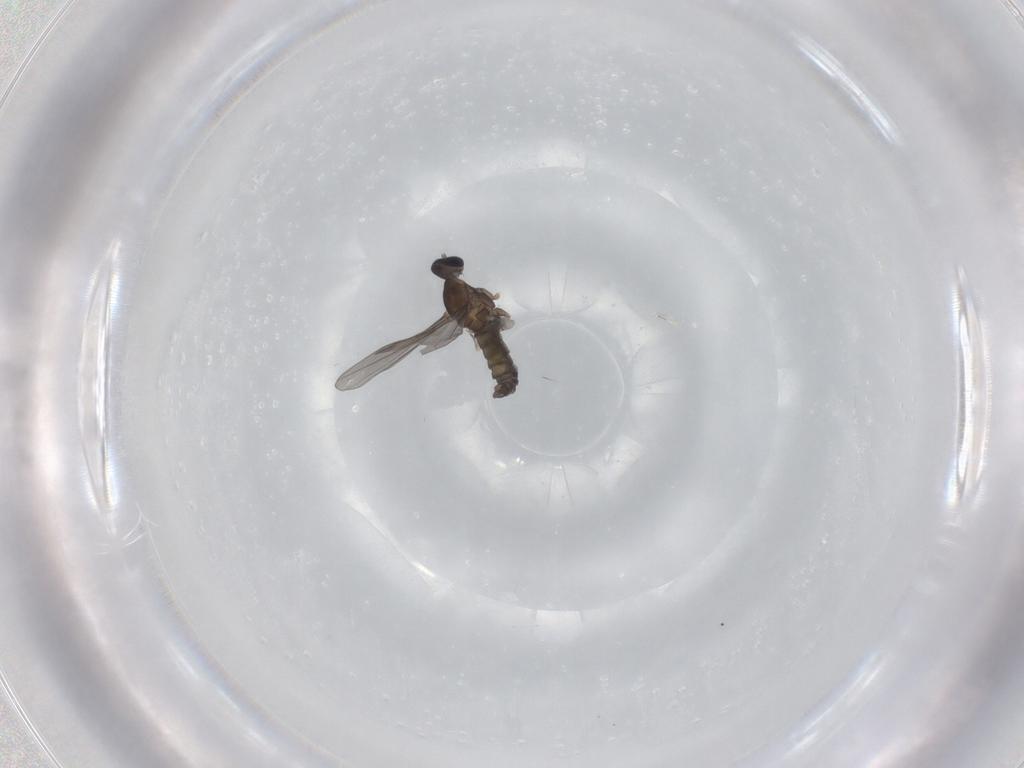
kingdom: Animalia
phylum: Arthropoda
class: Insecta
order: Diptera
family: Cecidomyiidae
